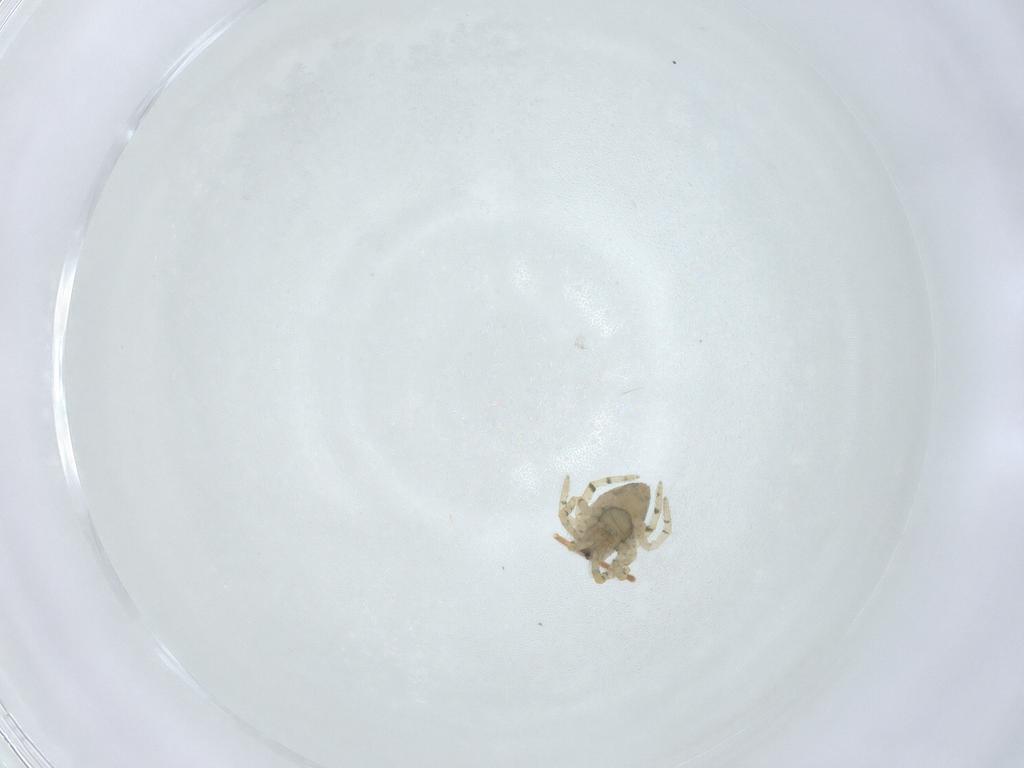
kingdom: Animalia
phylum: Arthropoda
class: Collembola
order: Entomobryomorpha
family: Entomobryidae
